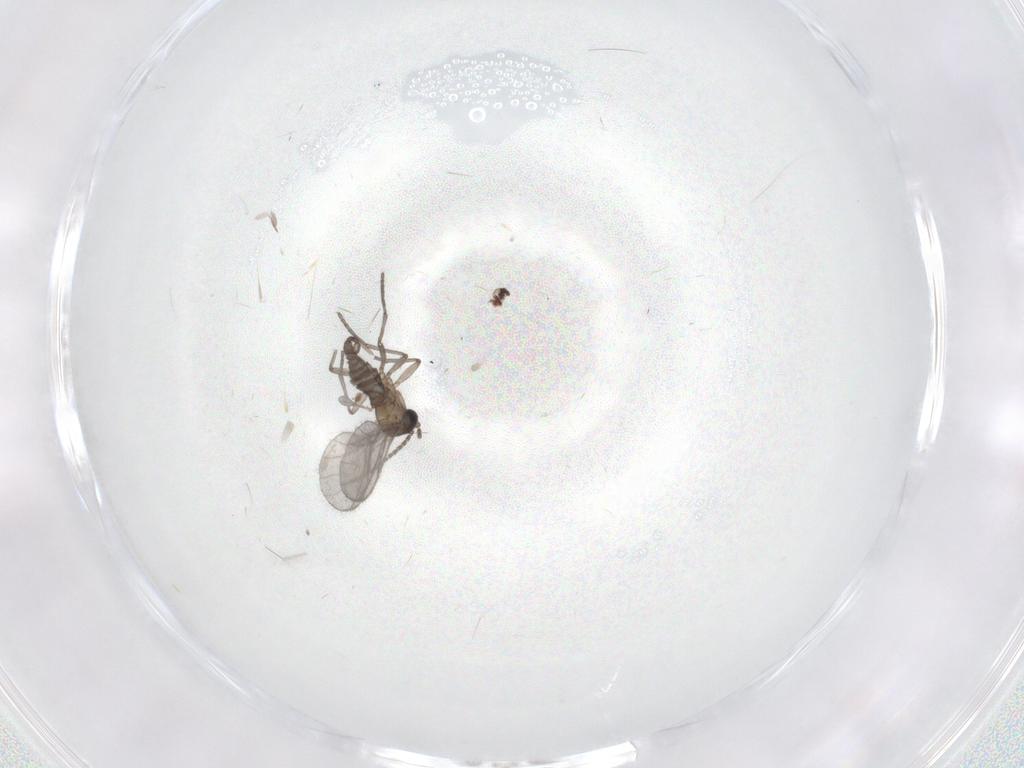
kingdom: Animalia
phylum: Arthropoda
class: Insecta
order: Diptera
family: Sciaridae
